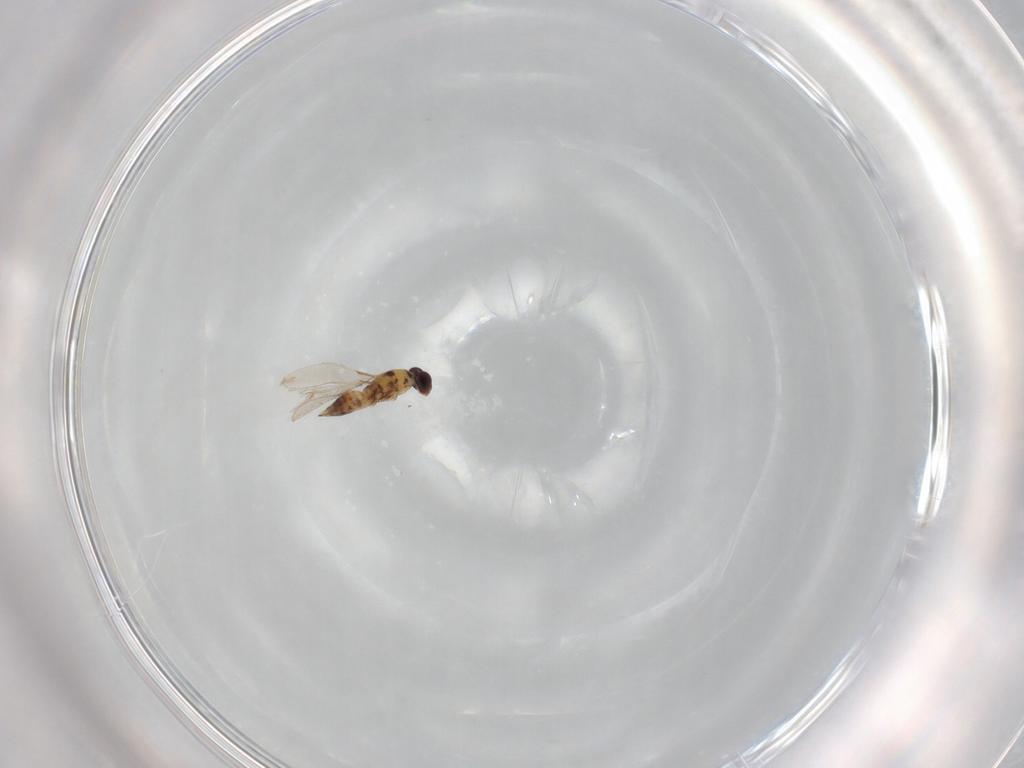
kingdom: Animalia
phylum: Arthropoda
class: Insecta
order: Hymenoptera
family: Mymaridae
